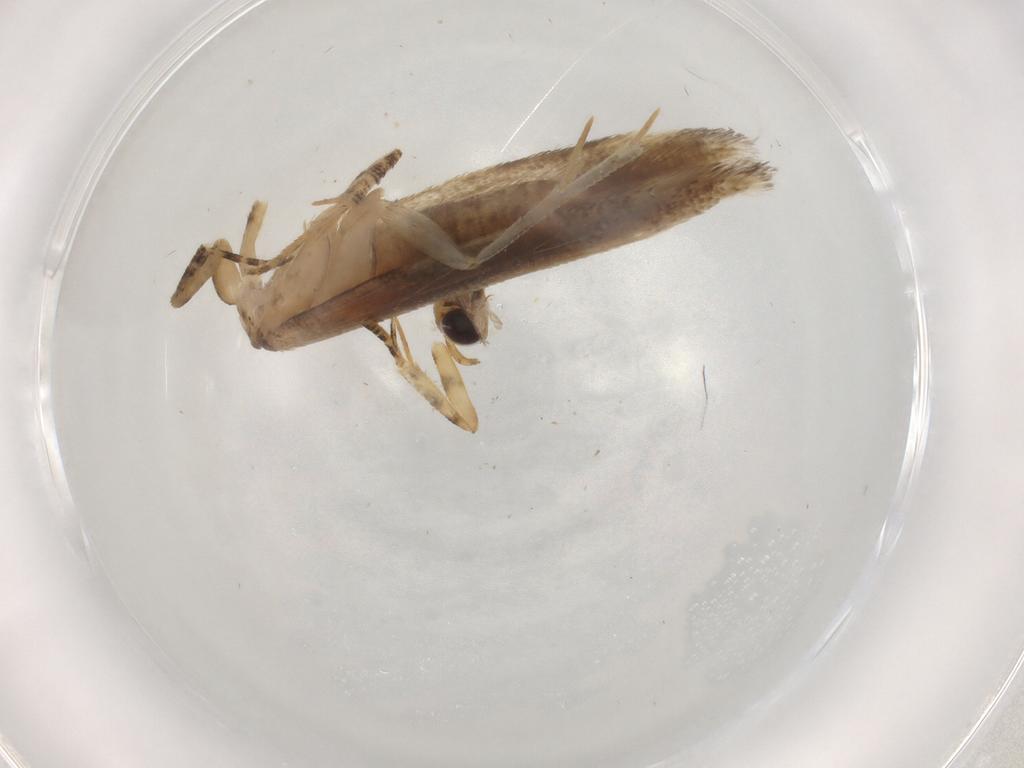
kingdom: Animalia
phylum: Arthropoda
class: Insecta
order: Lepidoptera
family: Gelechiidae
